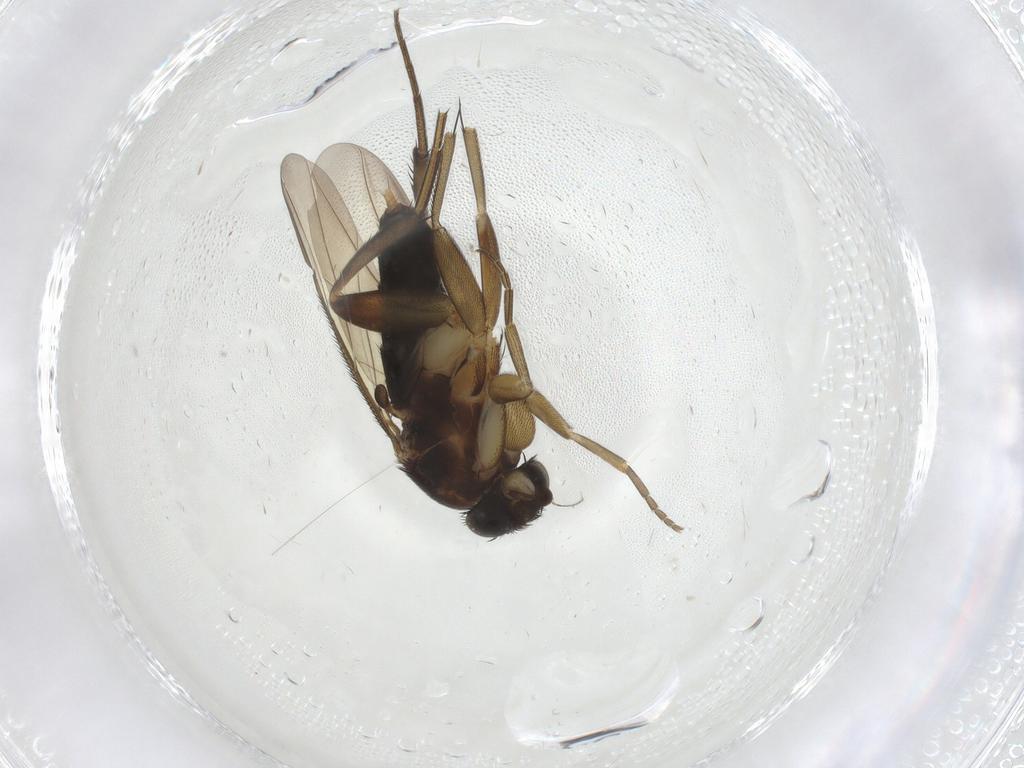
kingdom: Animalia
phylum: Arthropoda
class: Insecta
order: Diptera
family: Phoridae
